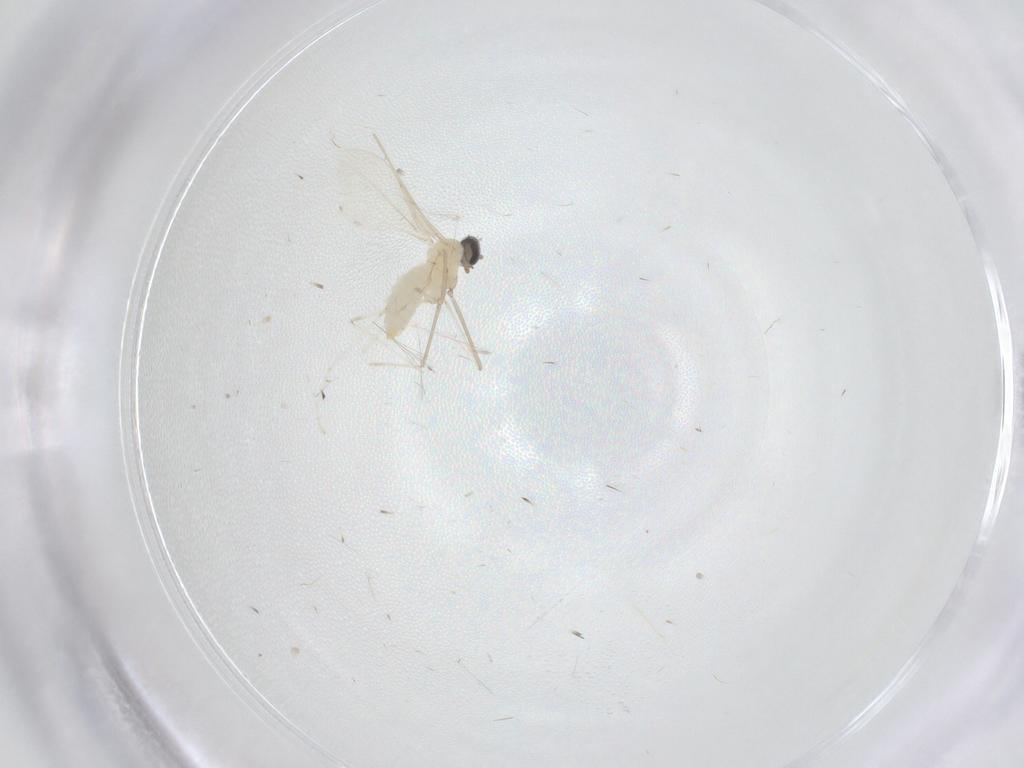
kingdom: Animalia
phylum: Arthropoda
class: Insecta
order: Diptera
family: Cecidomyiidae
